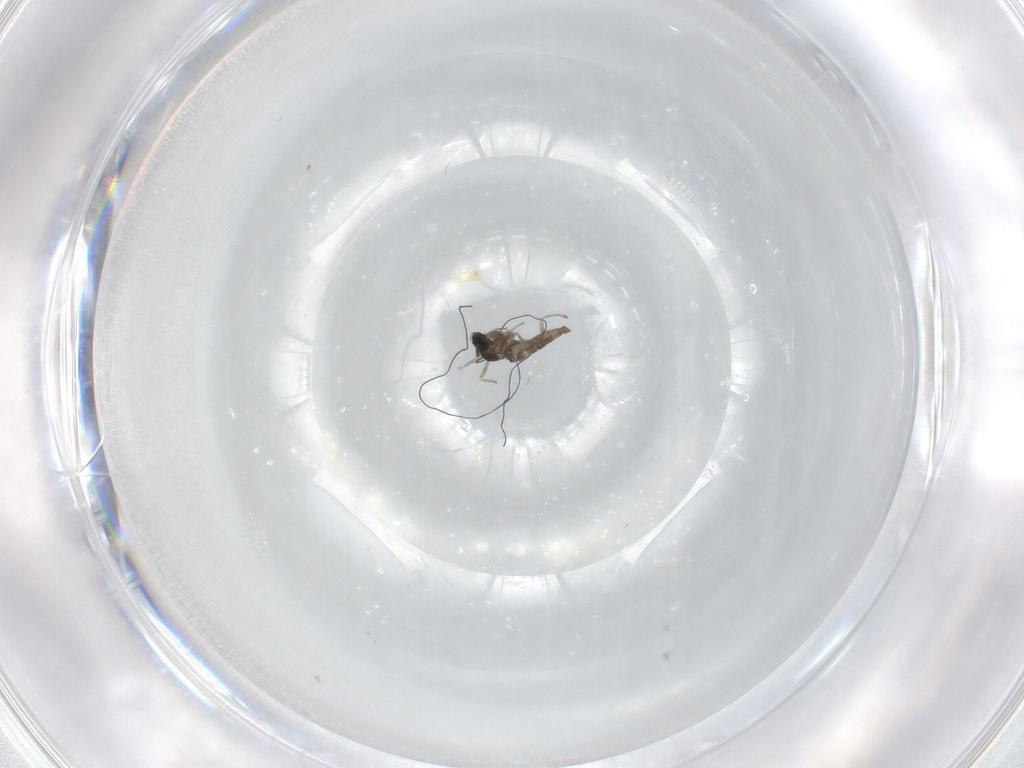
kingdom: Animalia
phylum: Arthropoda
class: Insecta
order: Diptera
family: Cecidomyiidae
